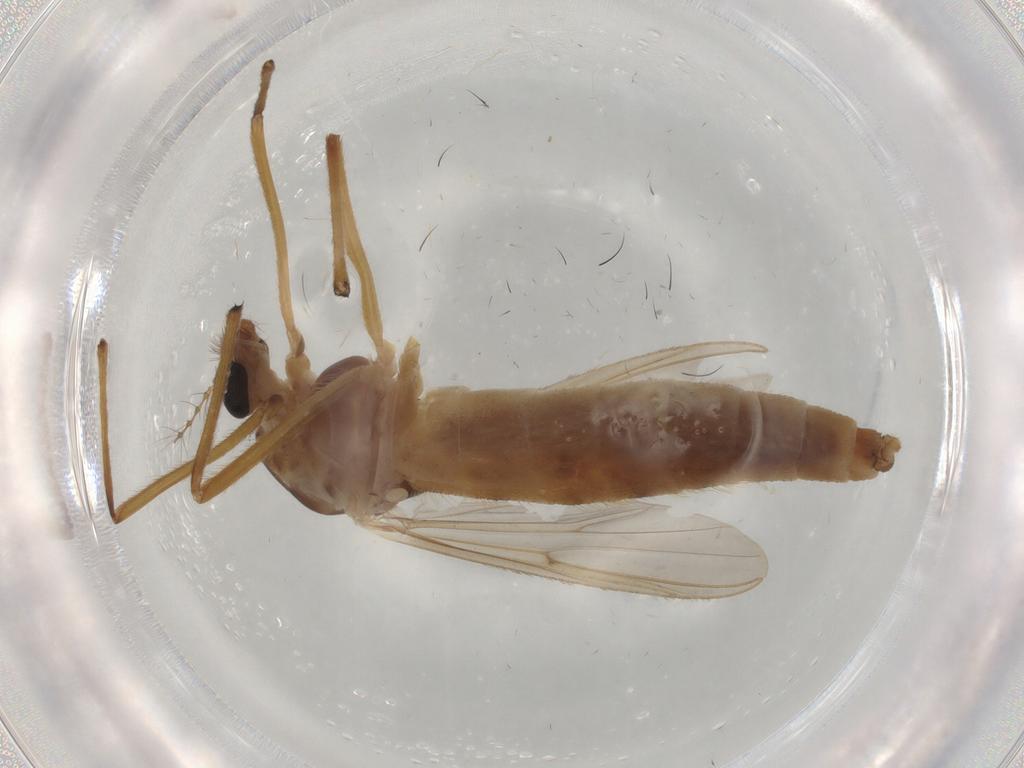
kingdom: Animalia
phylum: Arthropoda
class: Insecta
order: Diptera
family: Chironomidae
